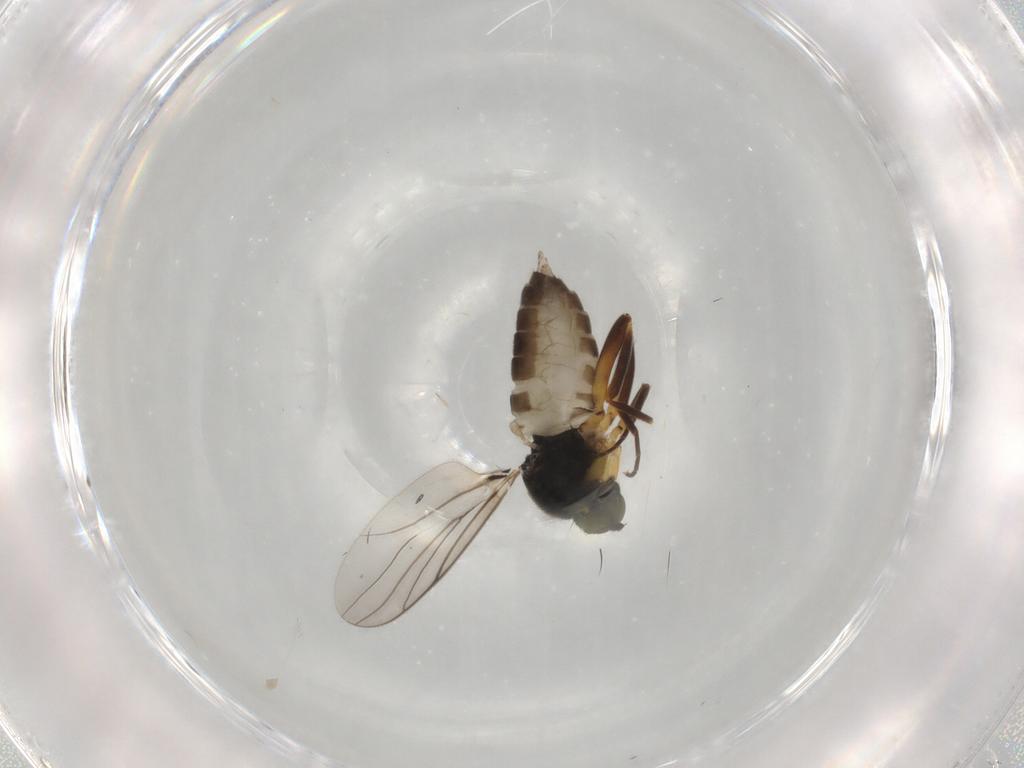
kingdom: Animalia
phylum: Arthropoda
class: Insecta
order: Diptera
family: Hybotidae
